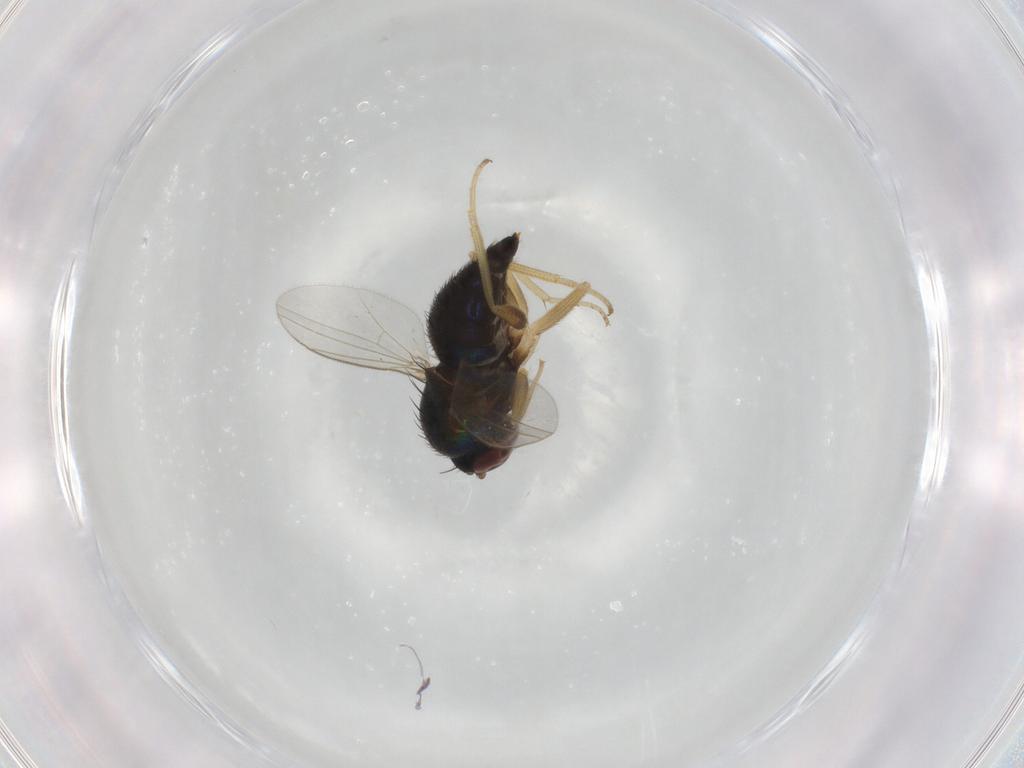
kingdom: Animalia
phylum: Arthropoda
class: Insecta
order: Diptera
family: Dolichopodidae
